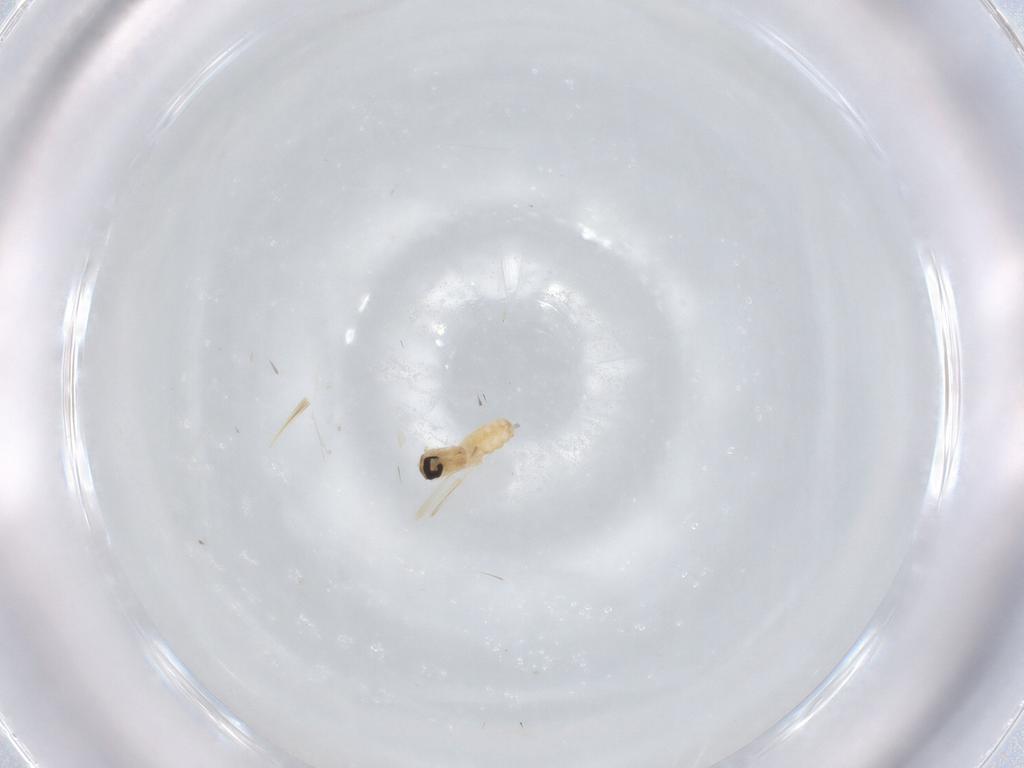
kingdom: Animalia
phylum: Arthropoda
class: Insecta
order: Diptera
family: Cecidomyiidae
